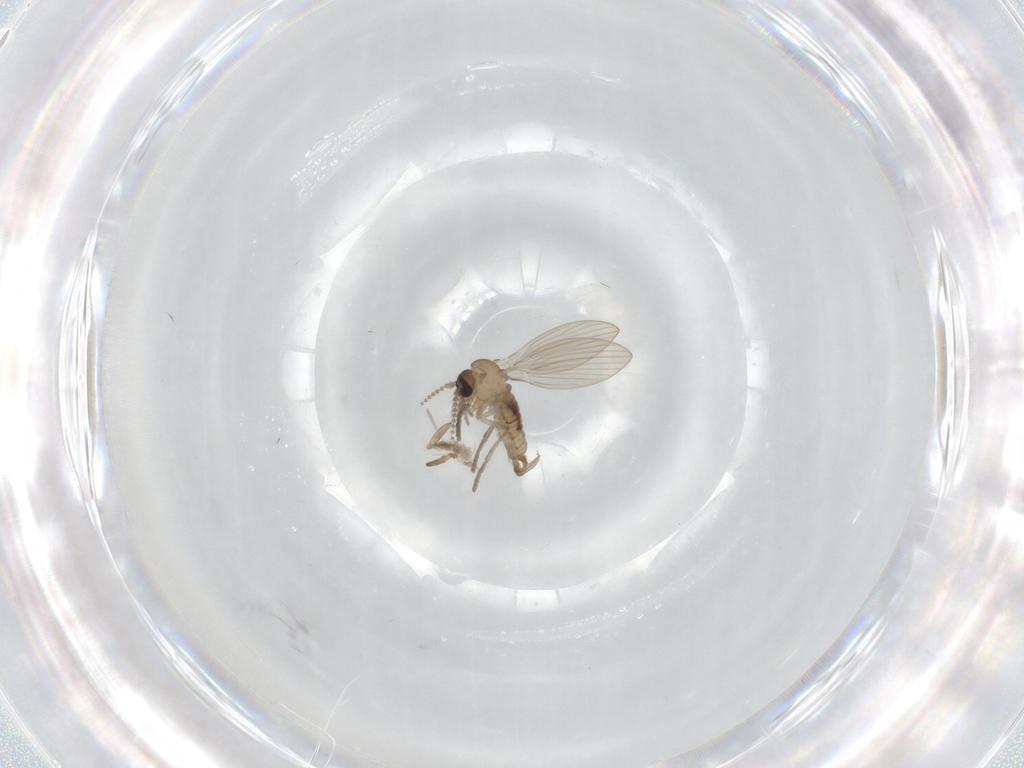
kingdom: Animalia
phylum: Arthropoda
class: Insecta
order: Diptera
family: Psychodidae
